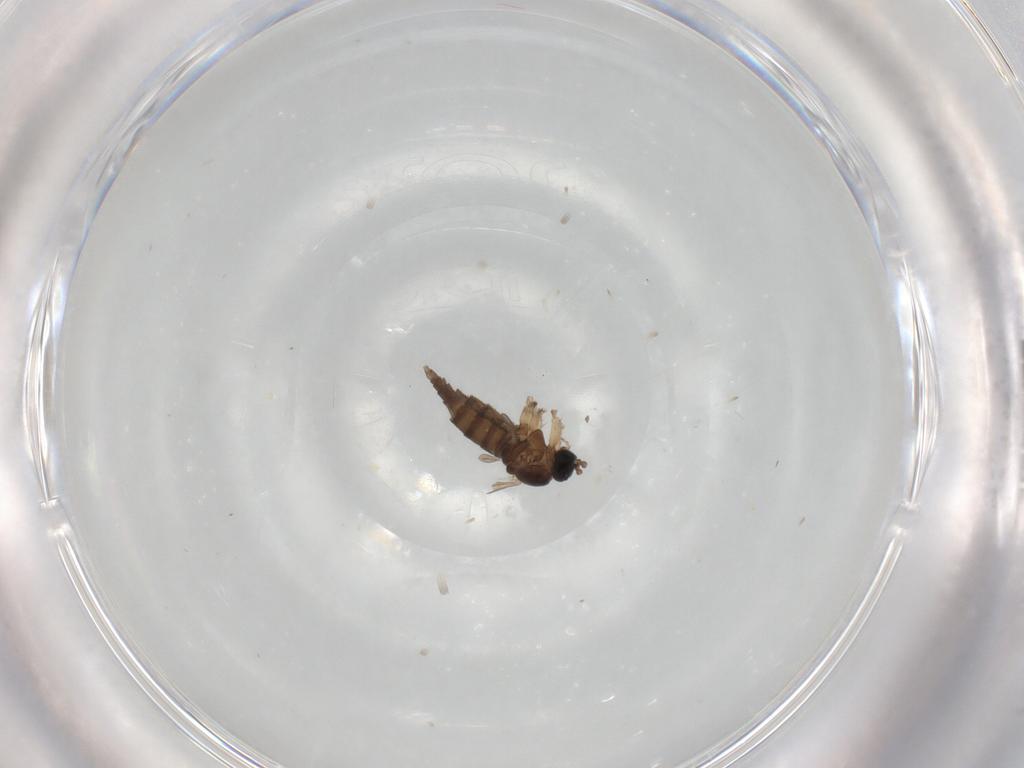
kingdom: Animalia
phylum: Arthropoda
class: Insecta
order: Diptera
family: Sciaridae
